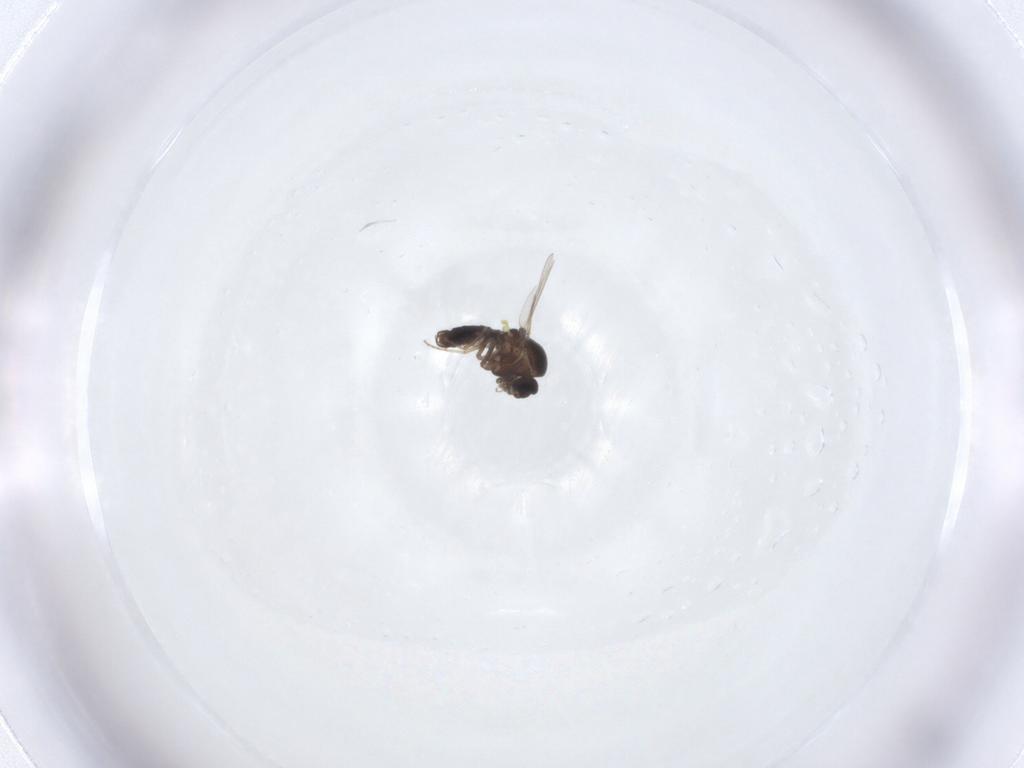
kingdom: Animalia
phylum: Arthropoda
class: Insecta
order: Diptera
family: Ceratopogonidae
